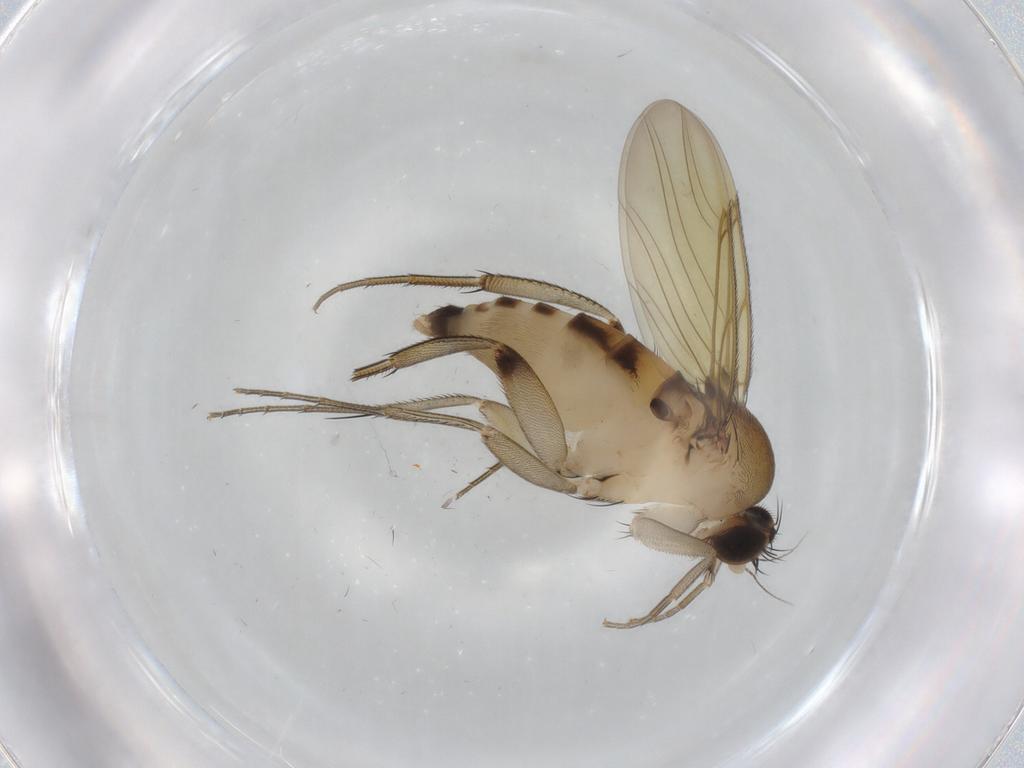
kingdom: Animalia
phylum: Arthropoda
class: Insecta
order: Diptera
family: Phoridae
